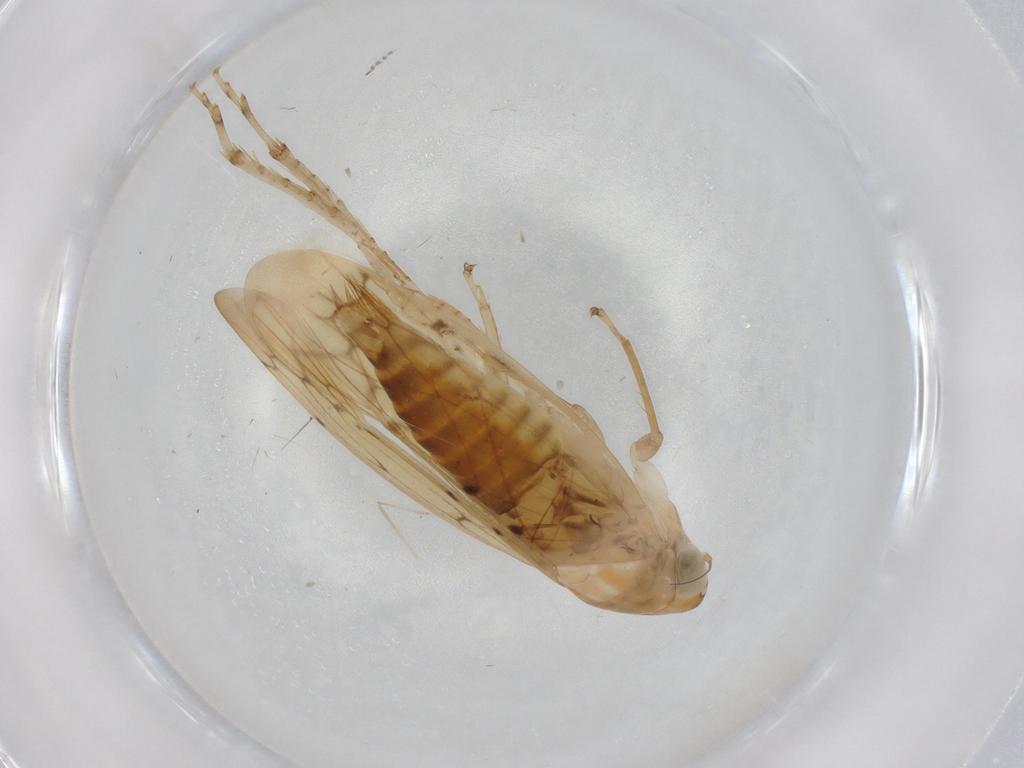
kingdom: Animalia
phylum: Arthropoda
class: Insecta
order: Hemiptera
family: Cicadellidae
